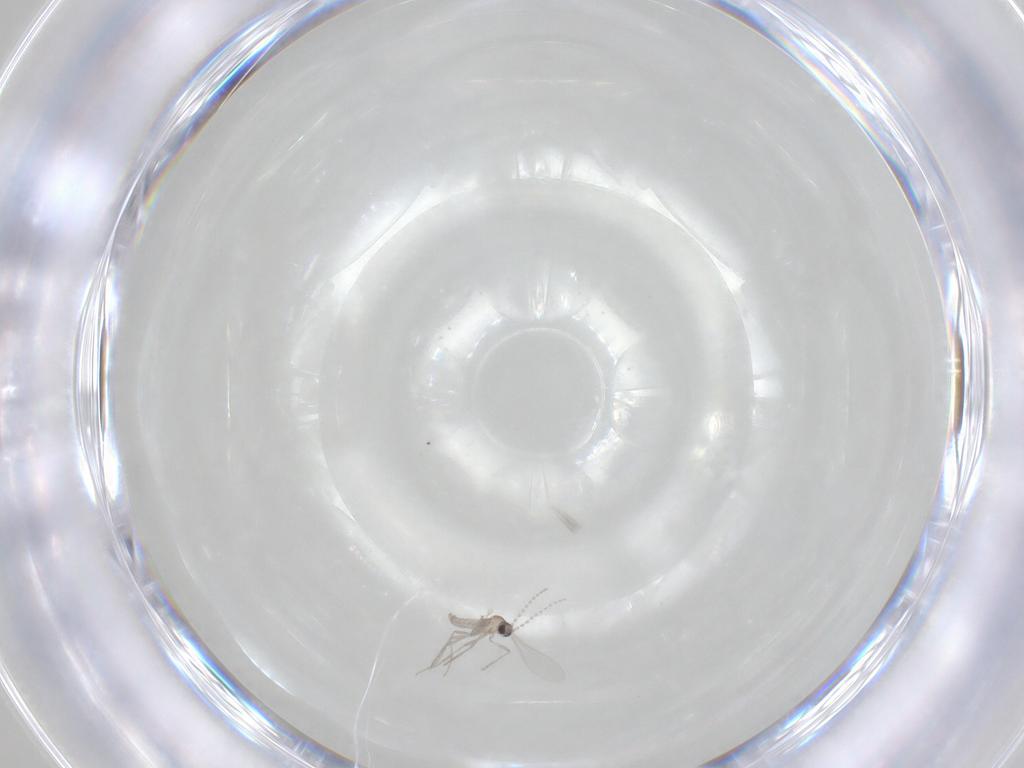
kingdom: Animalia
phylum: Arthropoda
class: Insecta
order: Diptera
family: Cecidomyiidae
